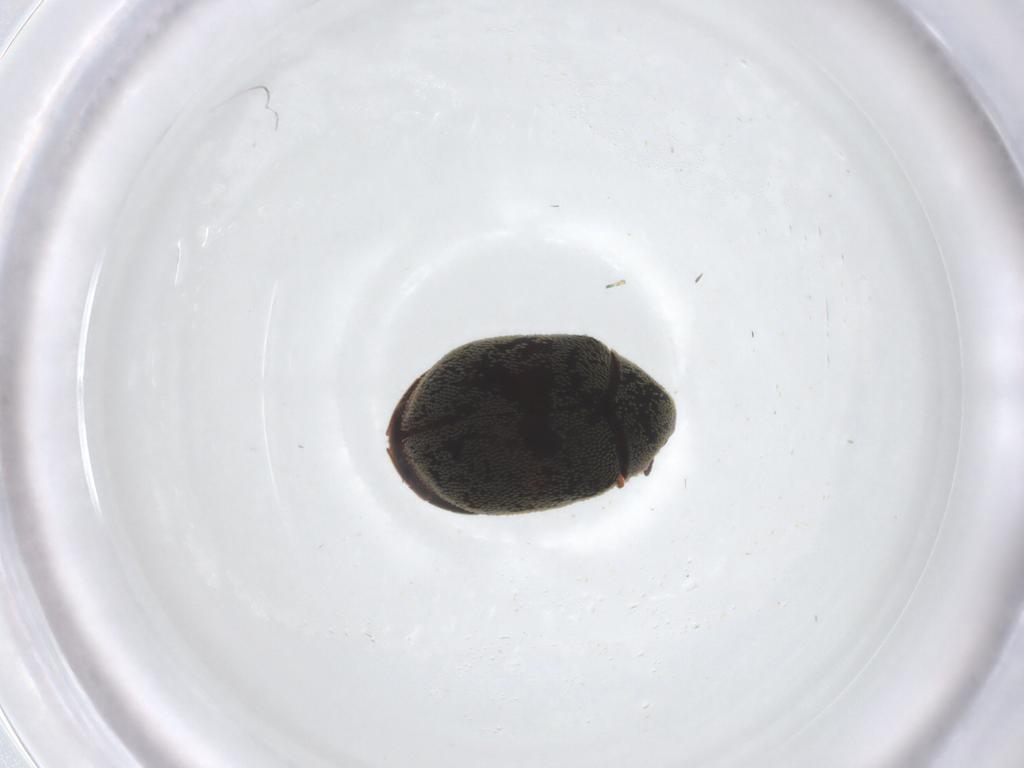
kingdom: Animalia
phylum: Arthropoda
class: Insecta
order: Coleoptera
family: Dermestidae
